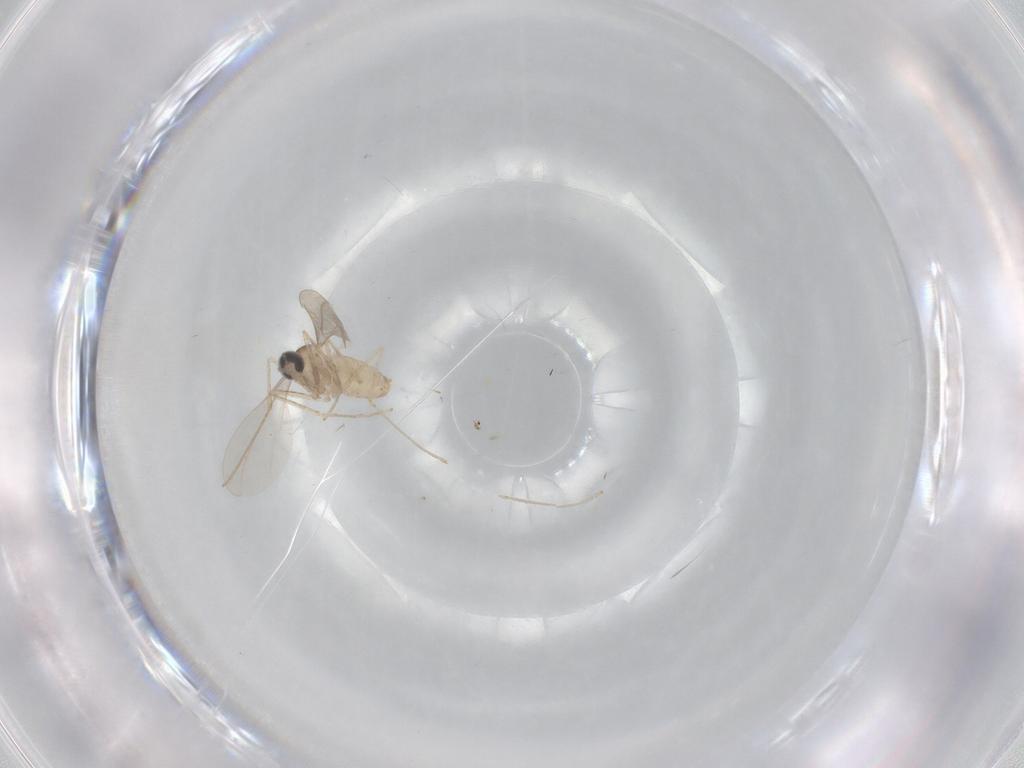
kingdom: Animalia
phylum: Arthropoda
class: Insecta
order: Diptera
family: Cecidomyiidae
